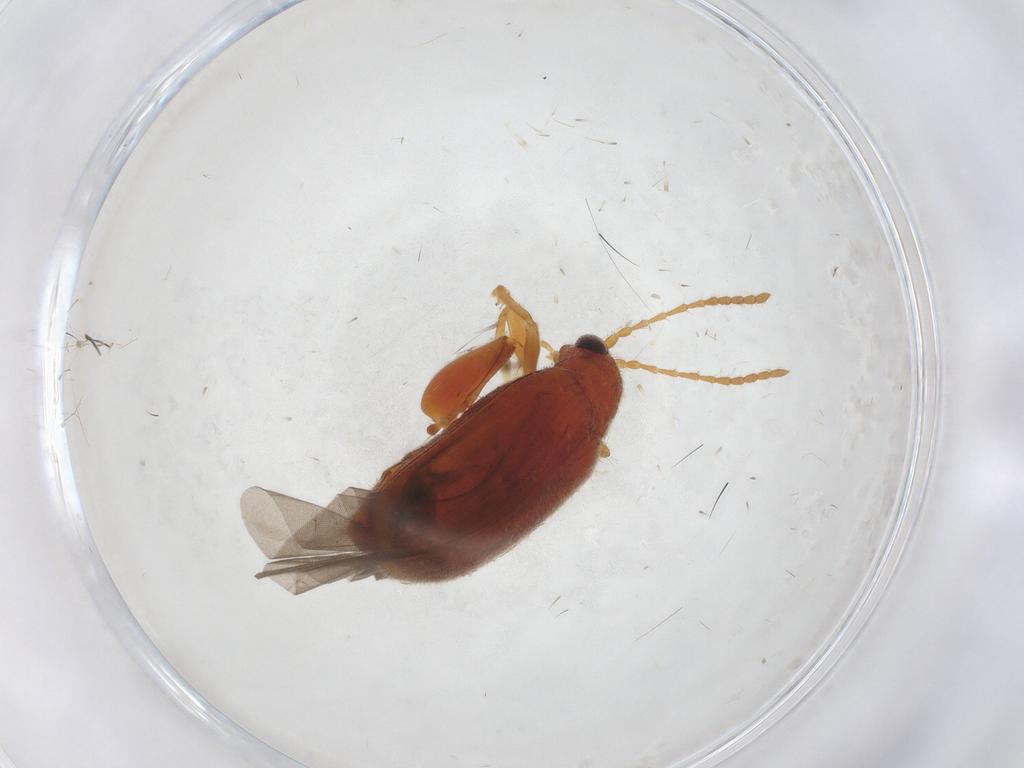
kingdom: Animalia
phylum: Arthropoda
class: Insecta
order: Coleoptera
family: Chrysomelidae
